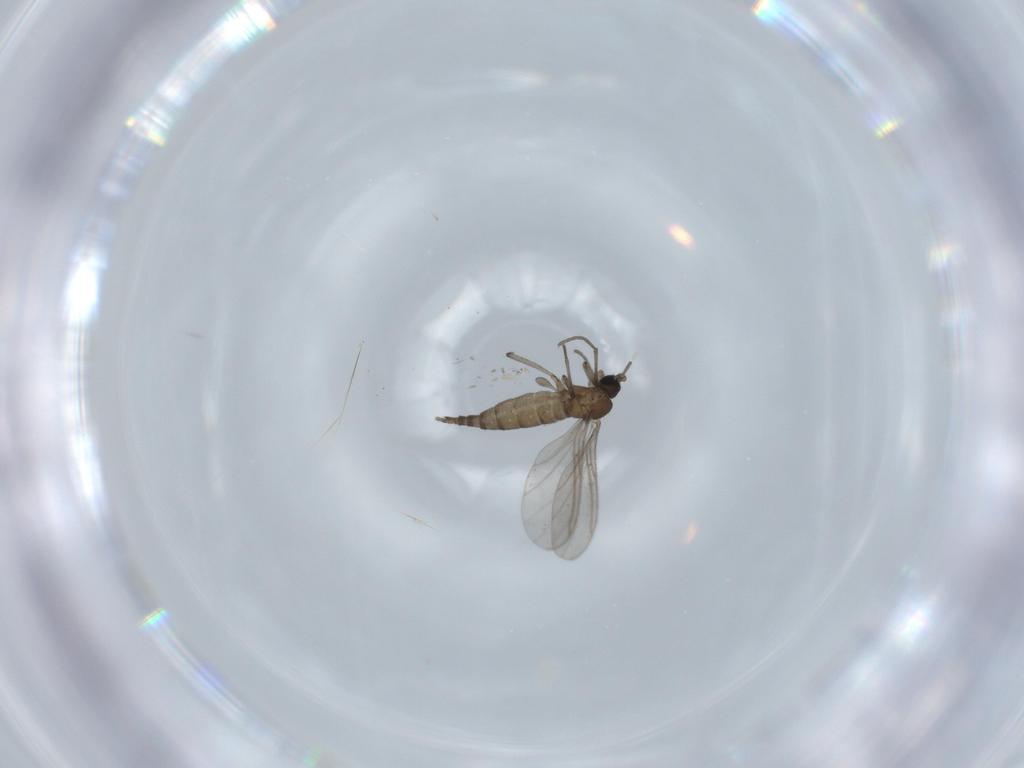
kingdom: Animalia
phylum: Arthropoda
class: Insecta
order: Diptera
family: Sciaridae
